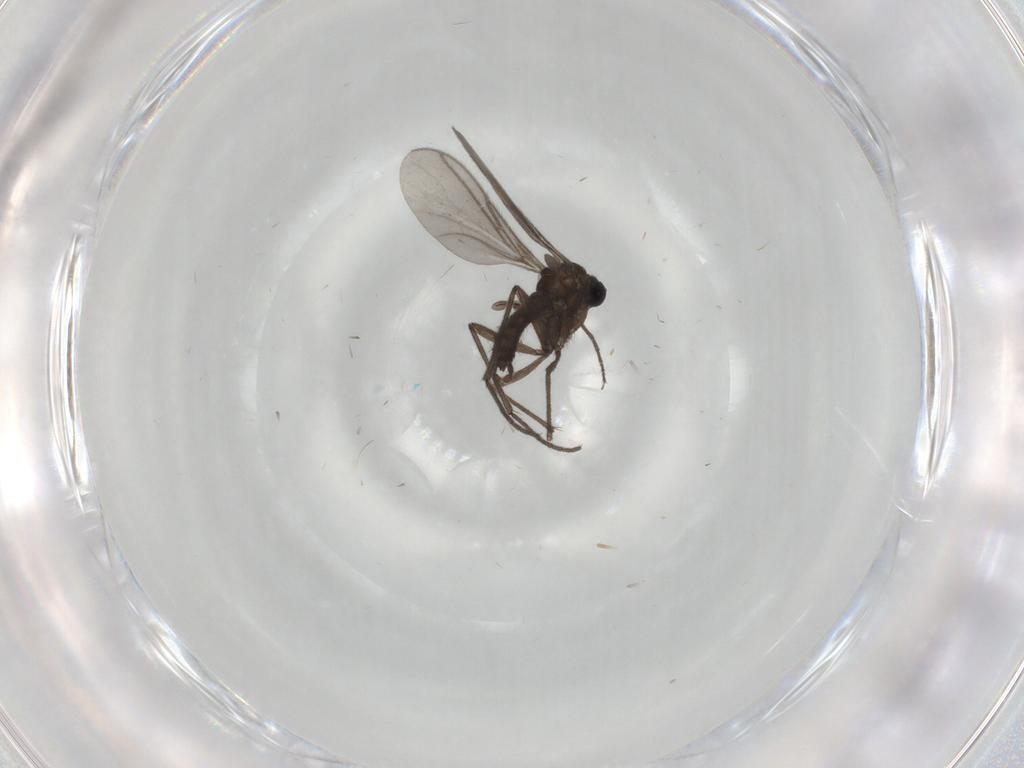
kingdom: Animalia
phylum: Arthropoda
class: Insecta
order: Diptera
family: Sciaridae
